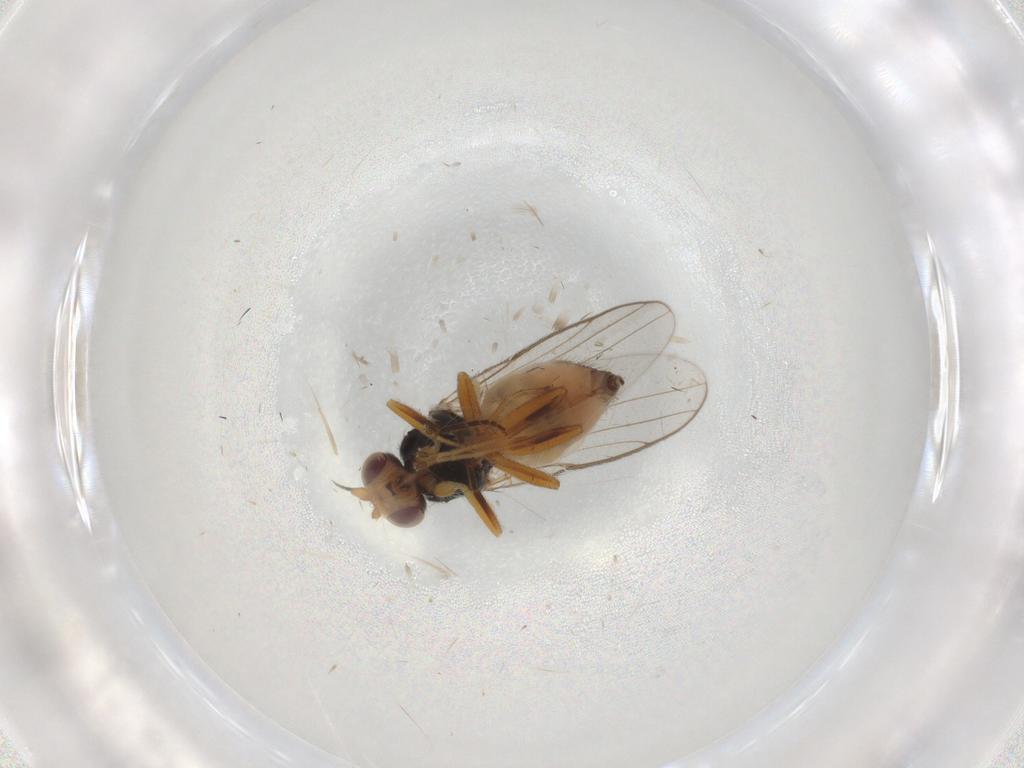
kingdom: Animalia
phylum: Arthropoda
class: Insecta
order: Diptera
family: Chloropidae
